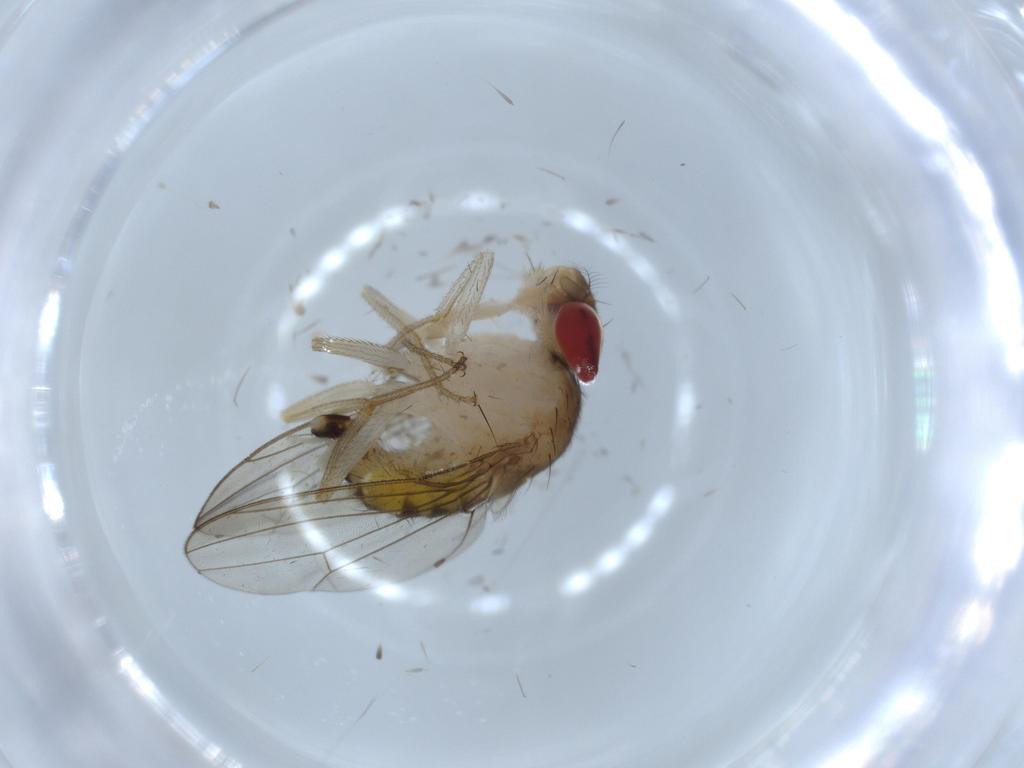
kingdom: Animalia
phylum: Arthropoda
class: Insecta
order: Diptera
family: Drosophilidae
